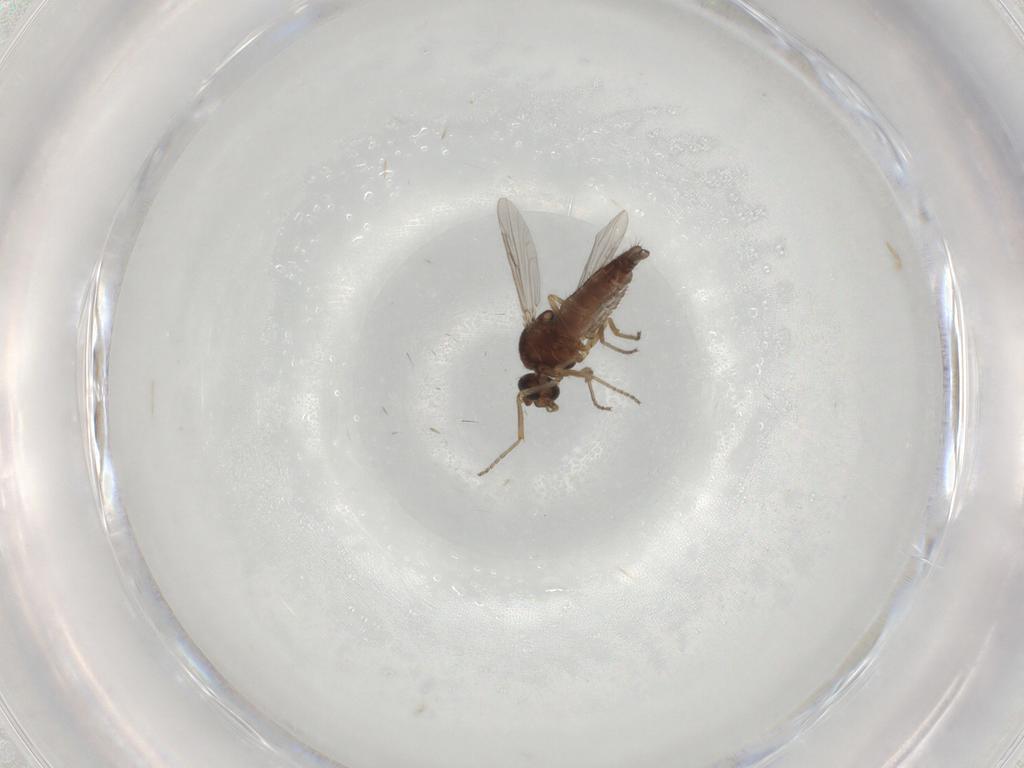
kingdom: Animalia
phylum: Arthropoda
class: Insecta
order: Diptera
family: Ceratopogonidae
